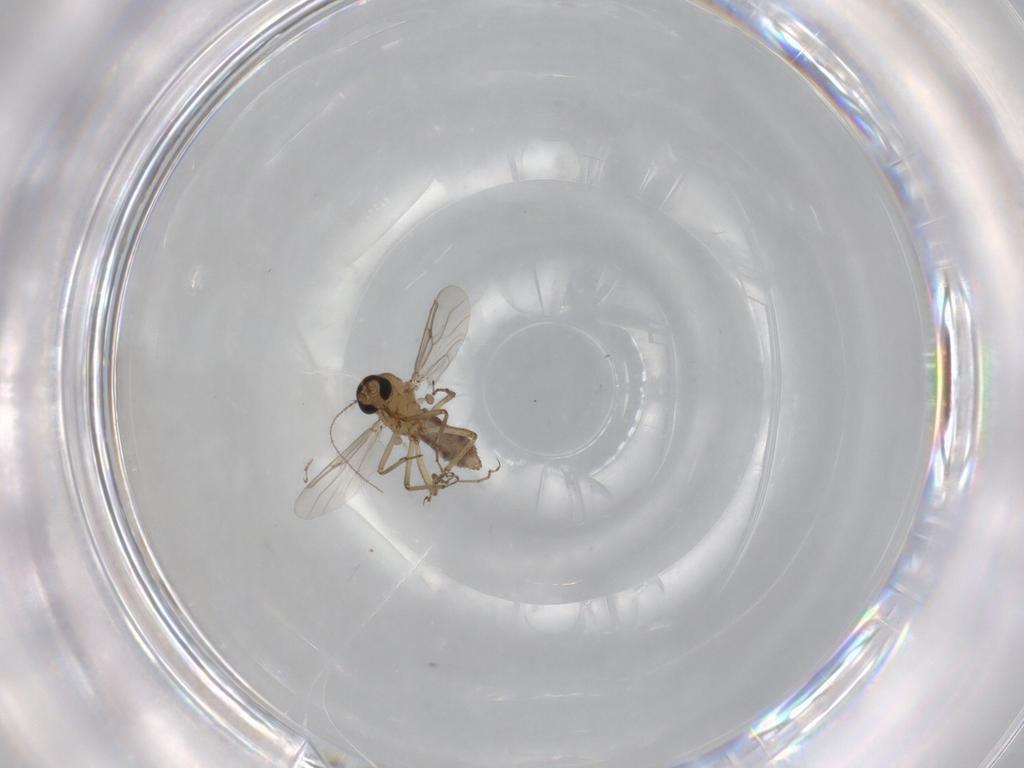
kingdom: Animalia
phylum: Arthropoda
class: Insecta
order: Diptera
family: Ceratopogonidae
